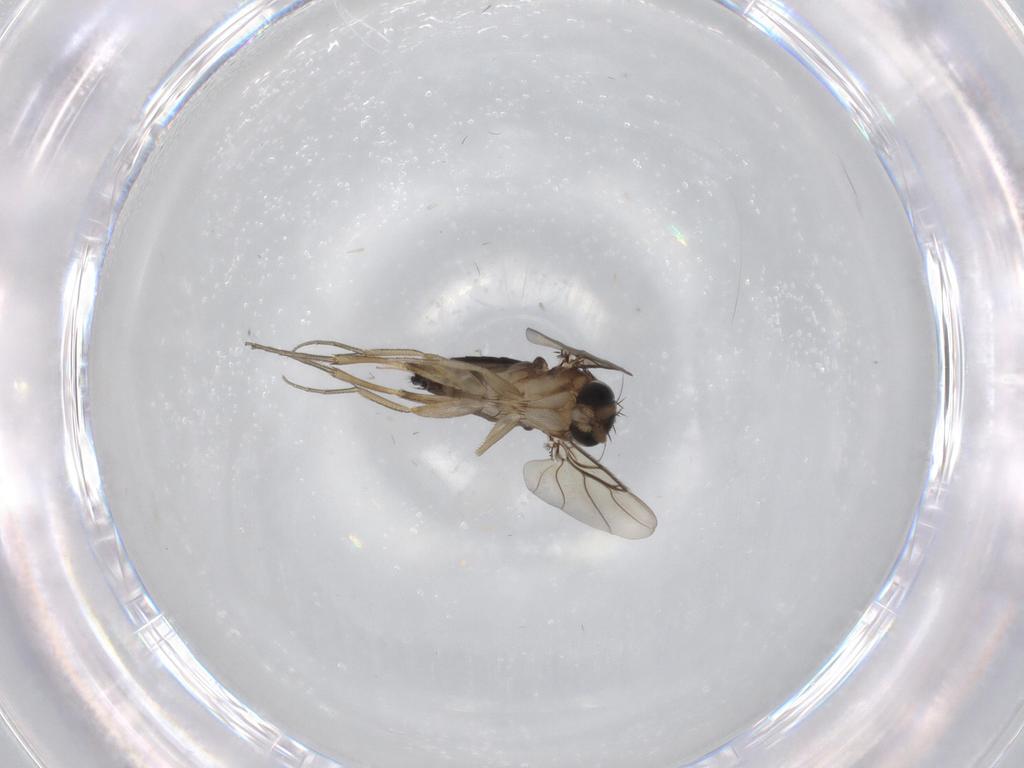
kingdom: Animalia
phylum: Arthropoda
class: Insecta
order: Diptera
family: Phoridae
